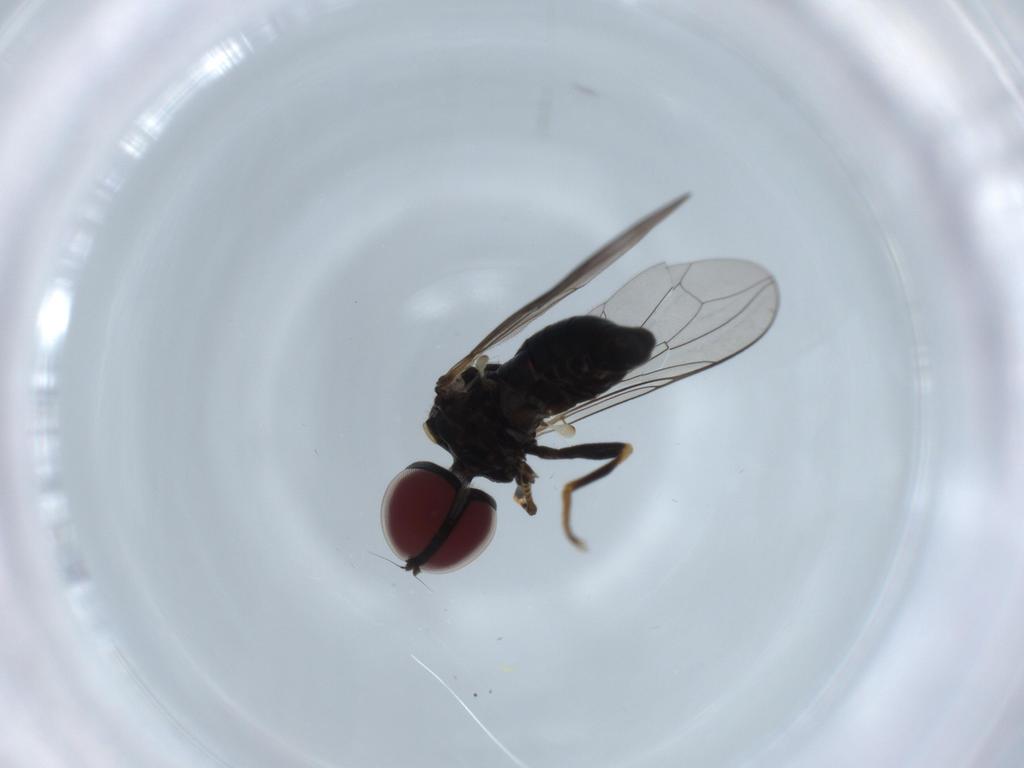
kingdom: Animalia
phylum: Arthropoda
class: Insecta
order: Diptera
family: Pipunculidae
